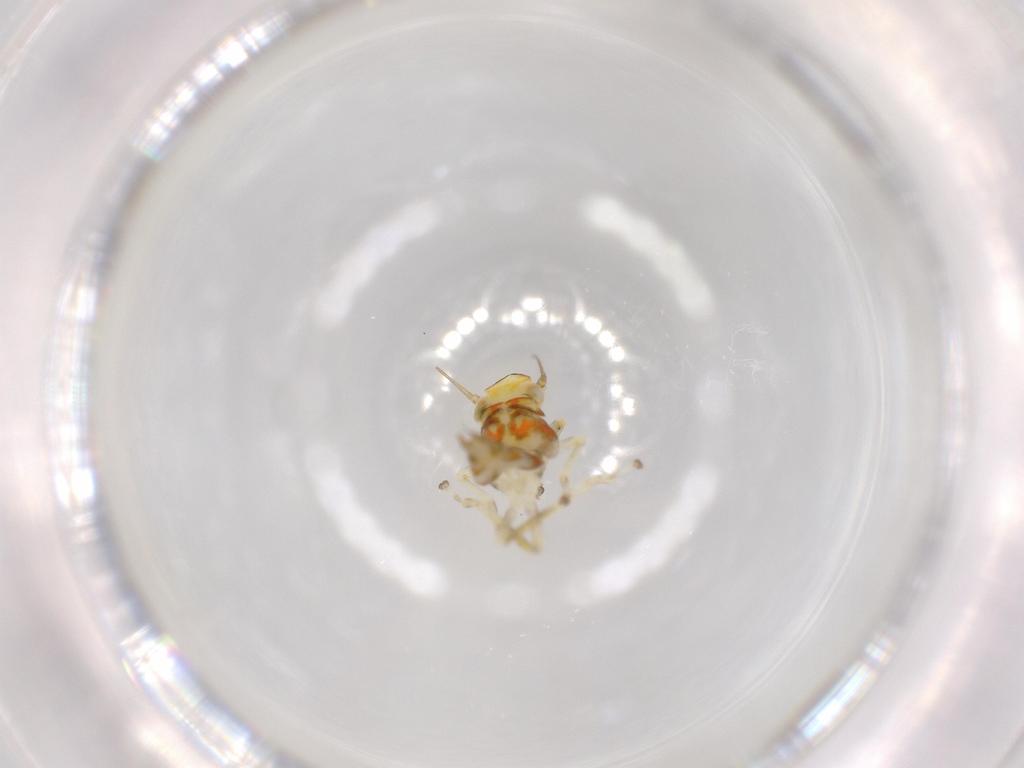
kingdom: Animalia
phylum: Arthropoda
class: Insecta
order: Hemiptera
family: Cicadellidae
